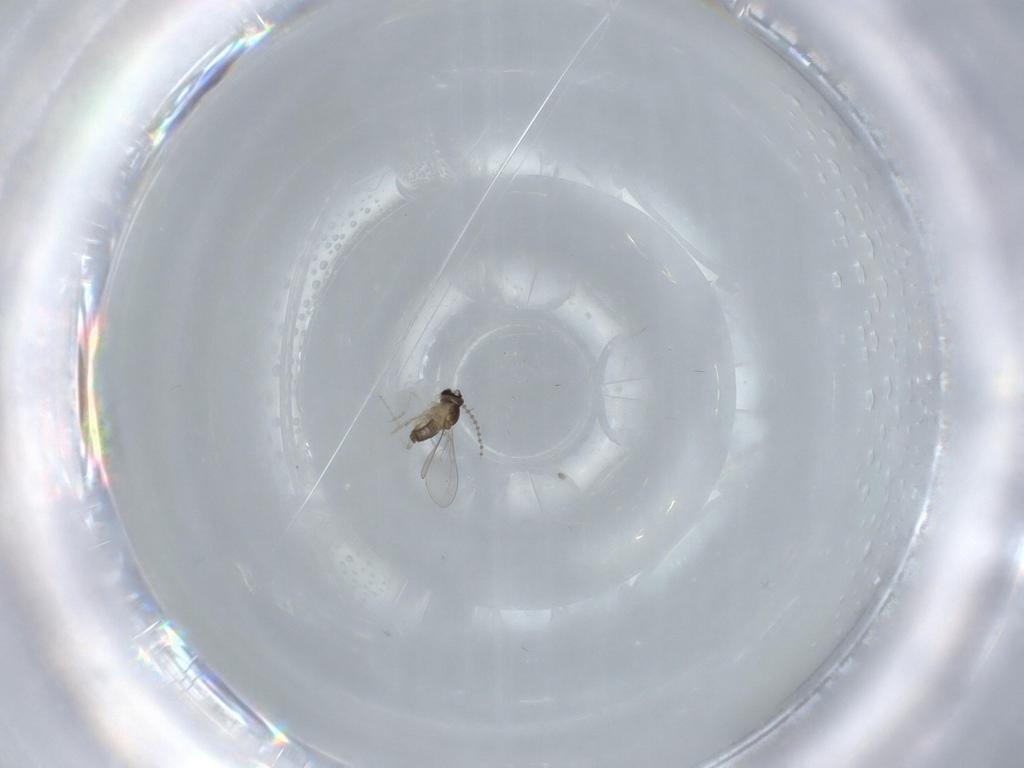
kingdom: Animalia
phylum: Arthropoda
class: Insecta
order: Diptera
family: Cecidomyiidae
